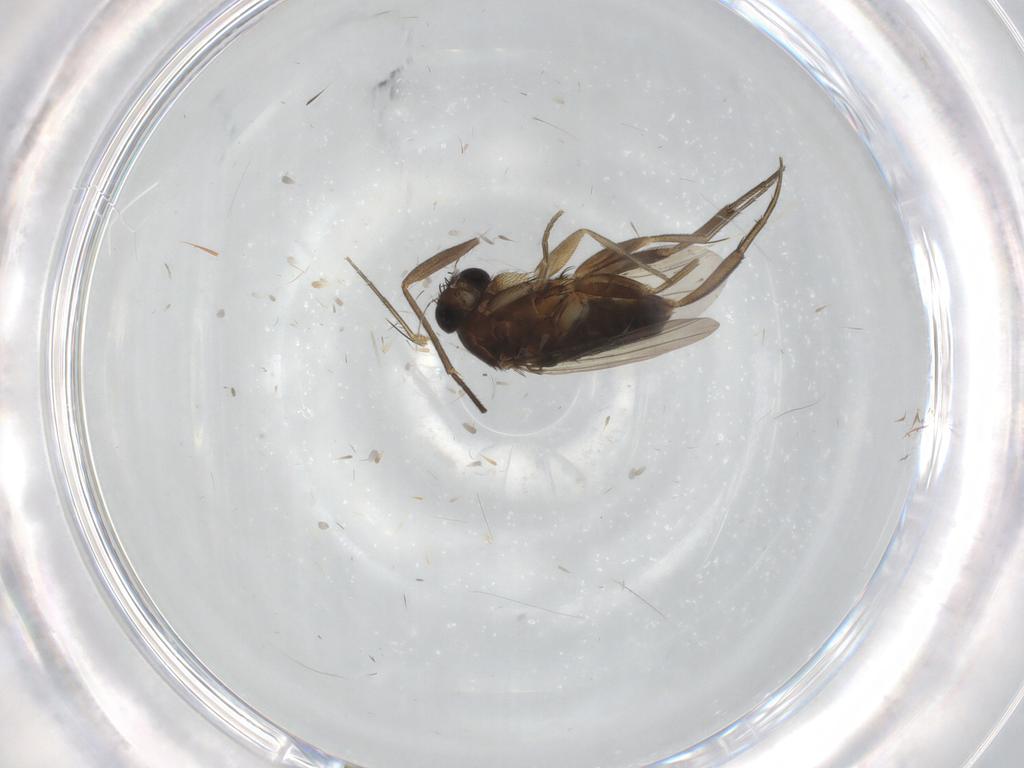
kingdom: Animalia
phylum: Arthropoda
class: Insecta
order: Diptera
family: Phoridae
